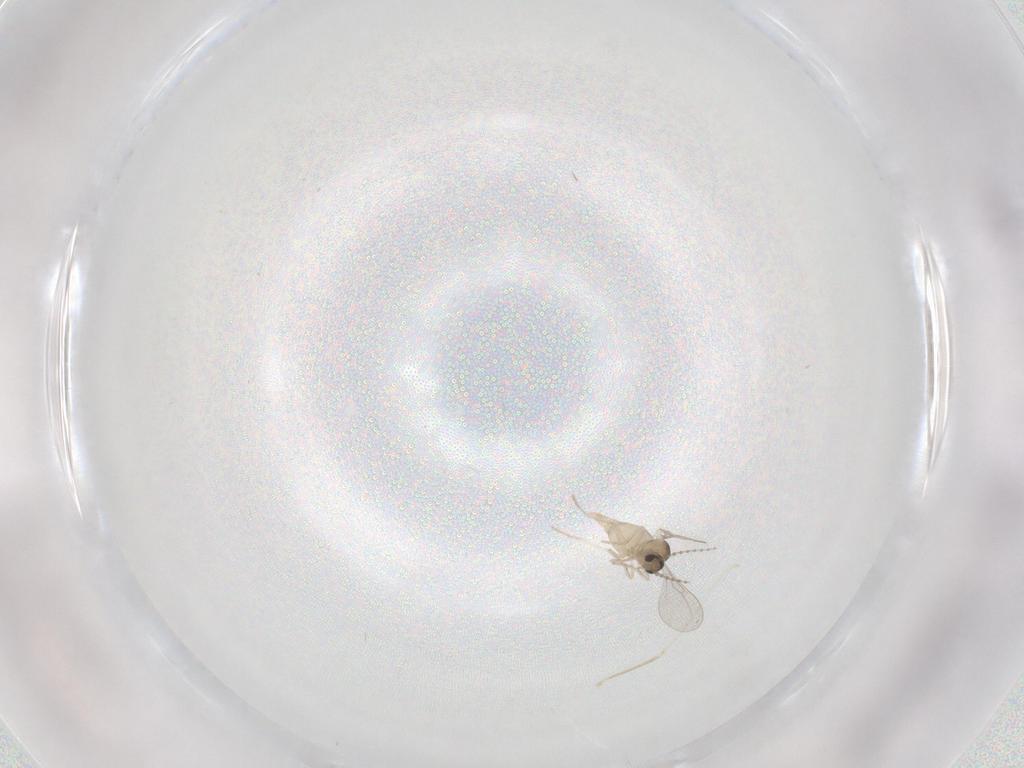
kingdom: Animalia
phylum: Arthropoda
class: Insecta
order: Diptera
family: Cecidomyiidae
